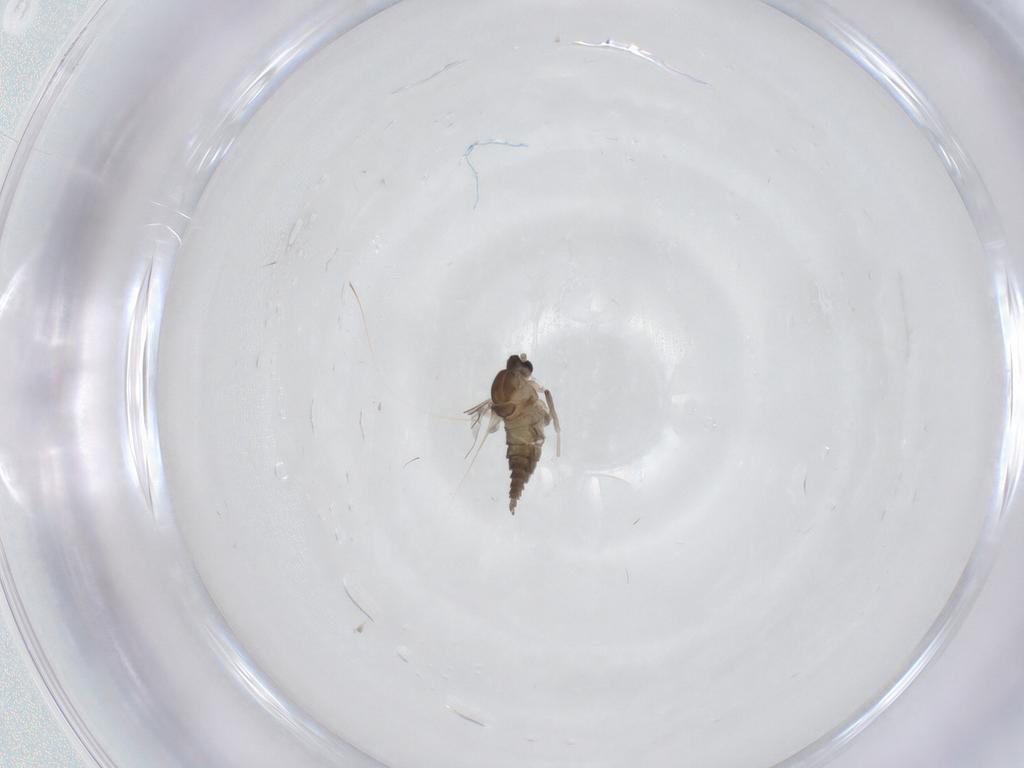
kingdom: Animalia
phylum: Arthropoda
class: Insecta
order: Diptera
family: Cecidomyiidae
